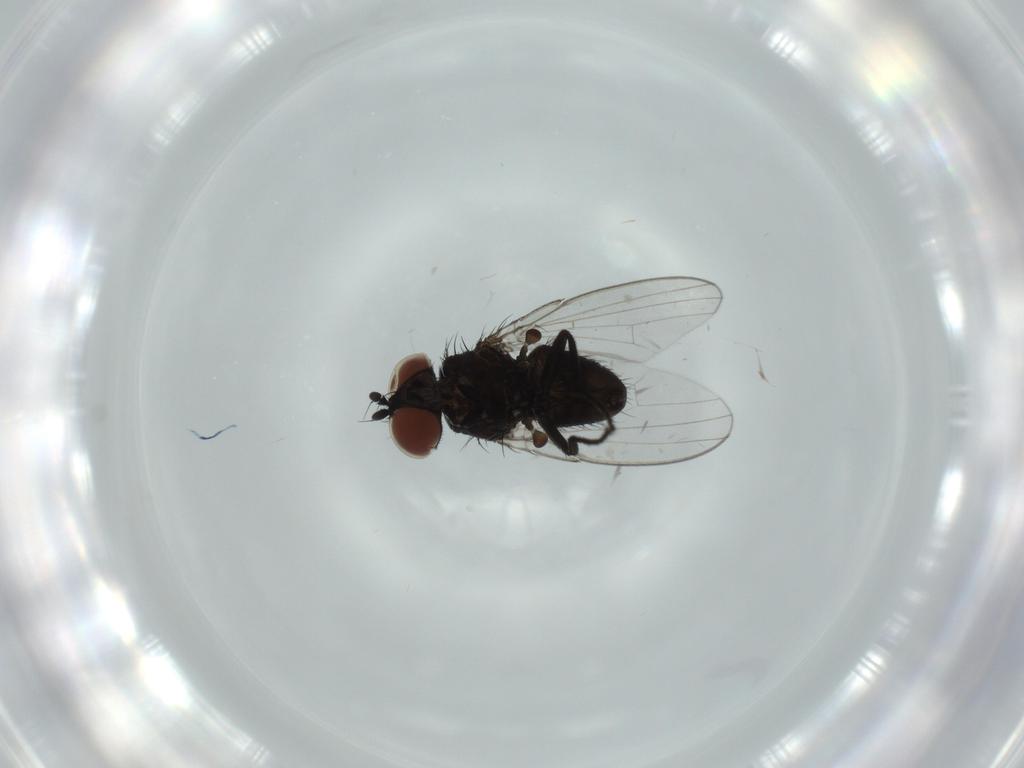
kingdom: Animalia
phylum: Arthropoda
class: Insecta
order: Diptera
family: Milichiidae
